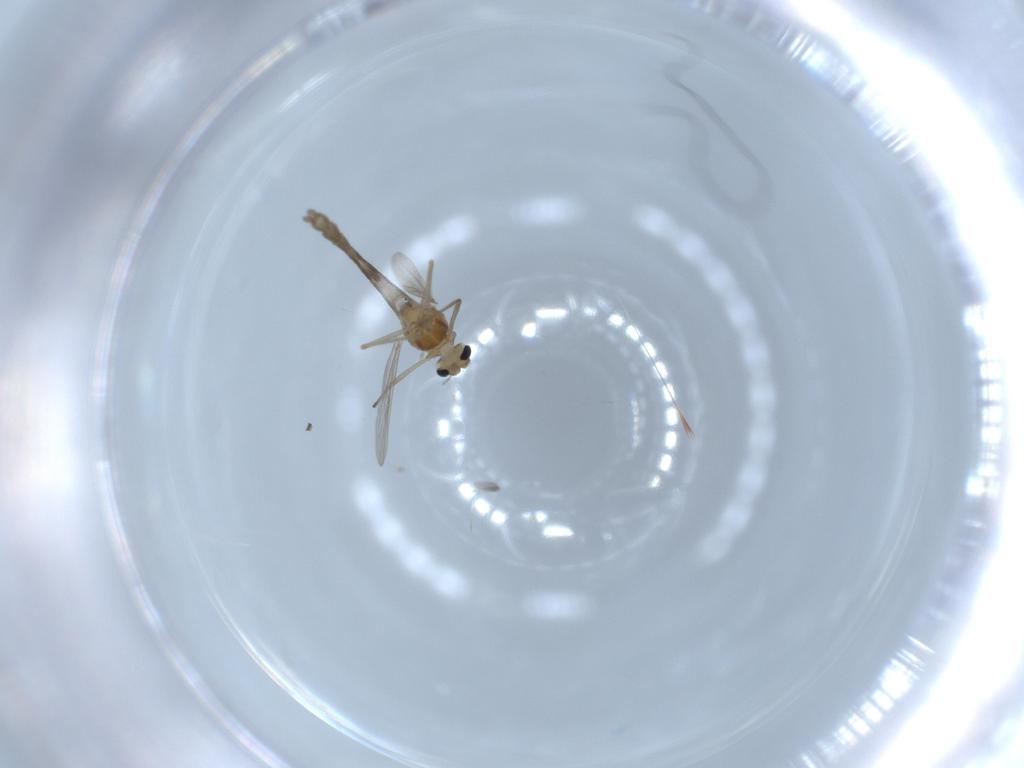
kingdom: Animalia
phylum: Arthropoda
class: Insecta
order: Diptera
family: Chironomidae
